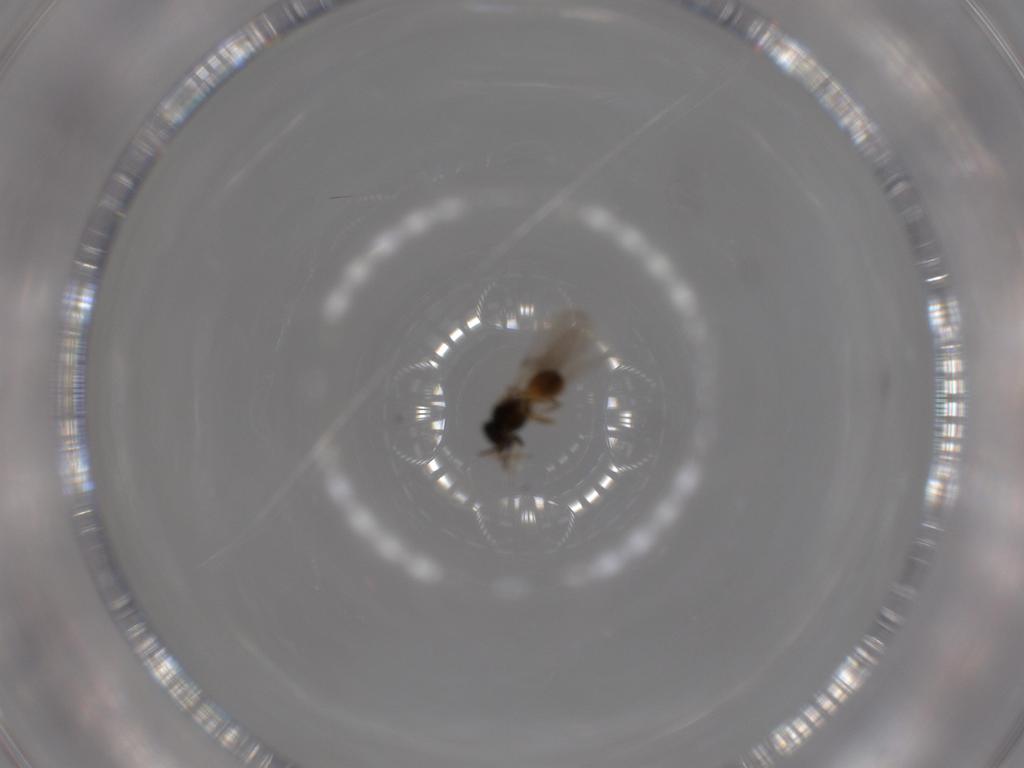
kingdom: Animalia
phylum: Arthropoda
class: Insecta
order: Hymenoptera
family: Scelionidae
